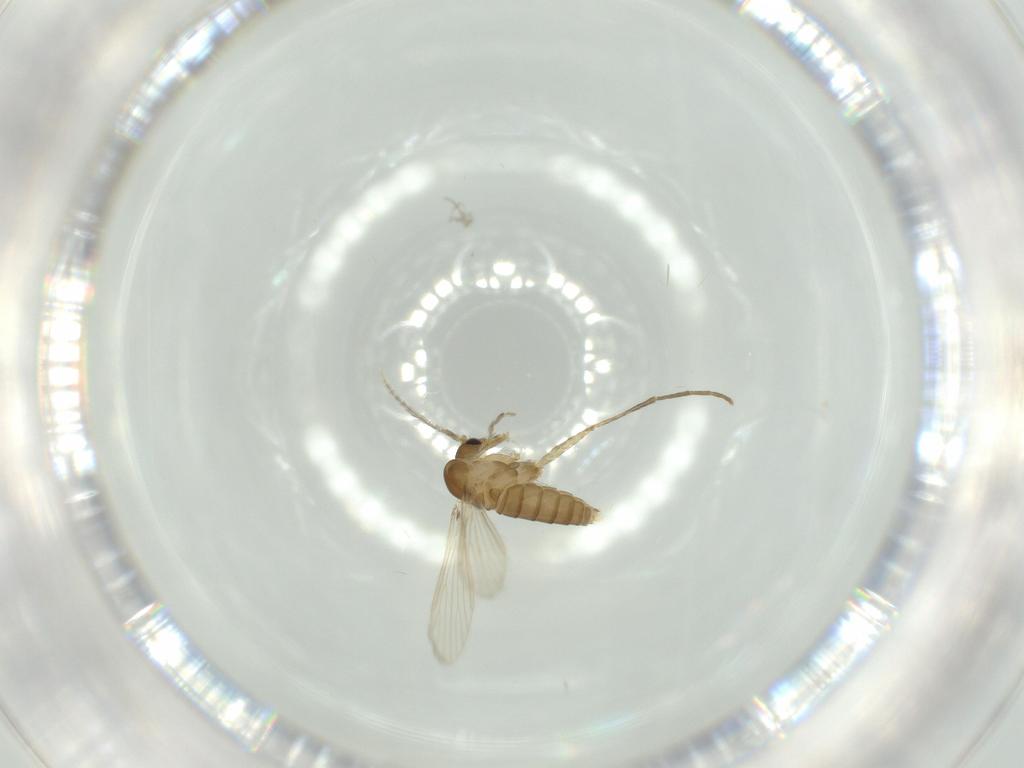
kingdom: Animalia
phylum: Arthropoda
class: Insecta
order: Diptera
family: Psychodidae
